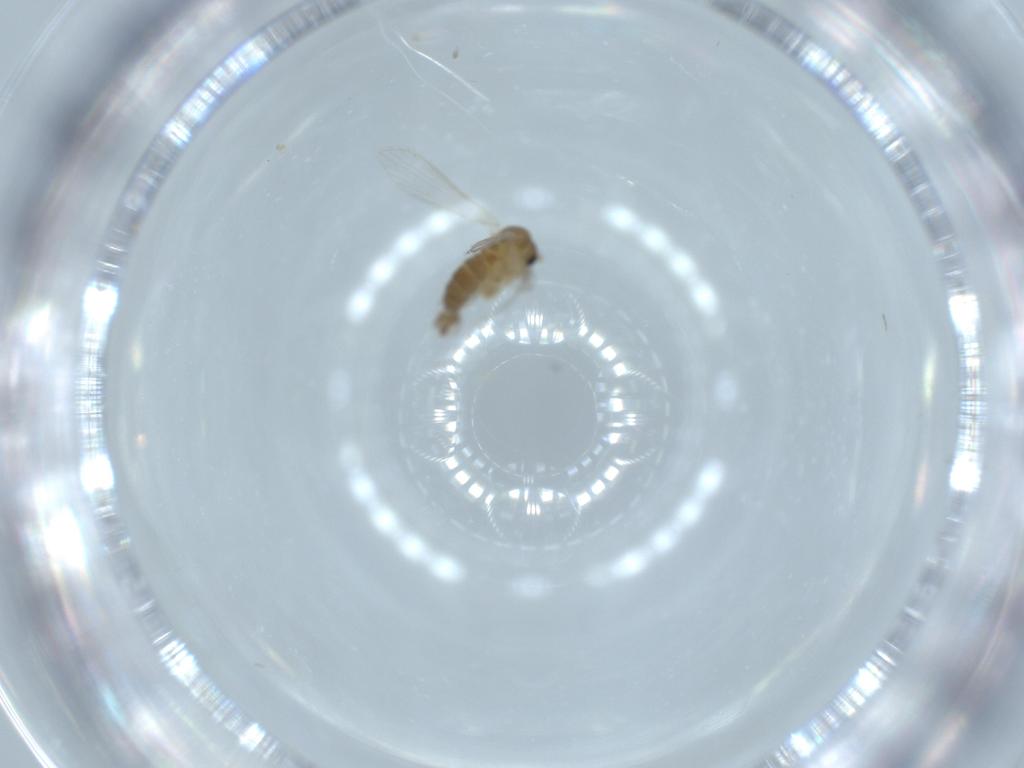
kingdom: Animalia
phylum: Arthropoda
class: Insecta
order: Diptera
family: Psychodidae
